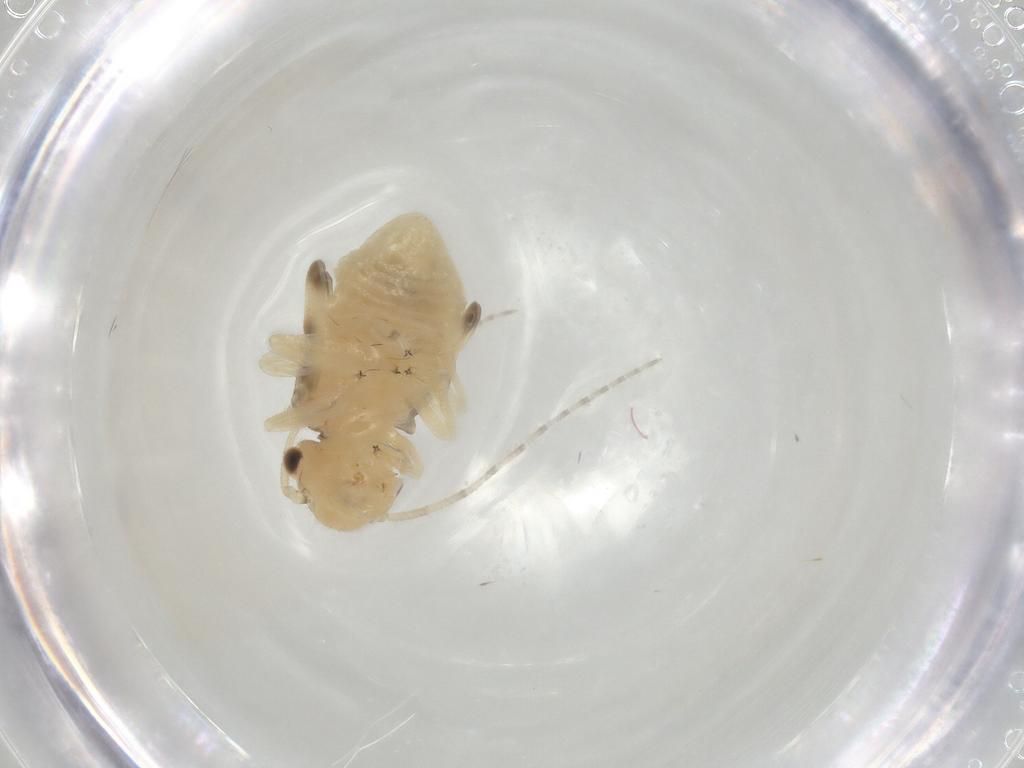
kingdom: Animalia
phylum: Arthropoda
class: Insecta
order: Psocodea
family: Amphipsocidae
